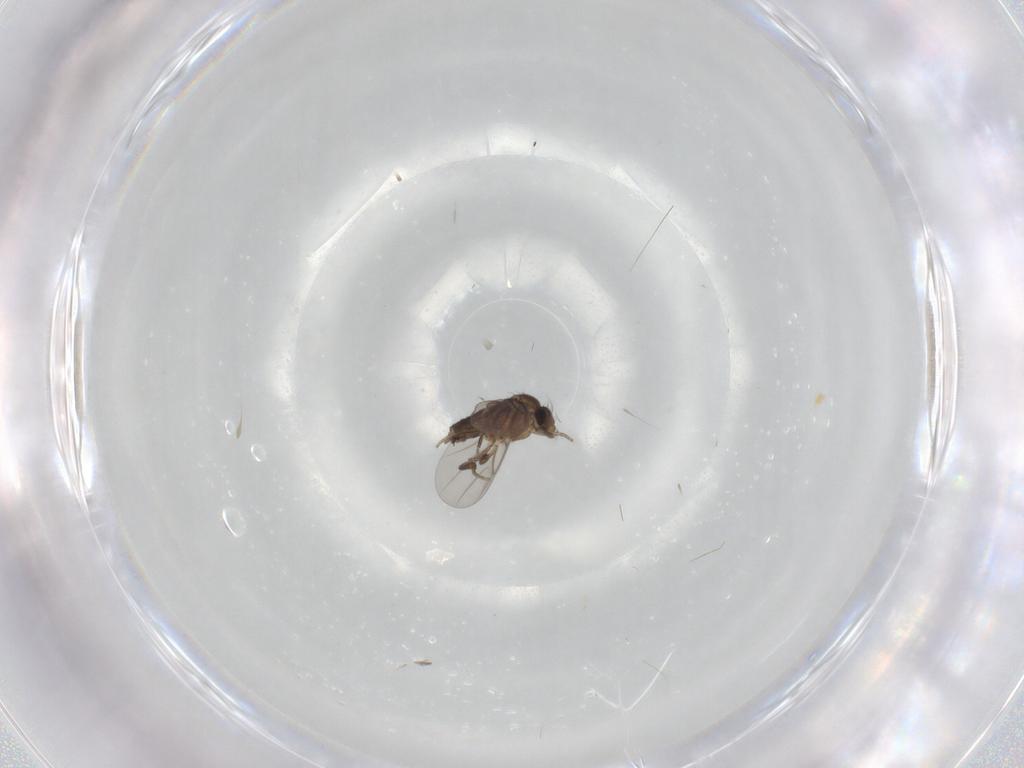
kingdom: Animalia
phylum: Arthropoda
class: Insecta
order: Diptera
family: Phoridae
